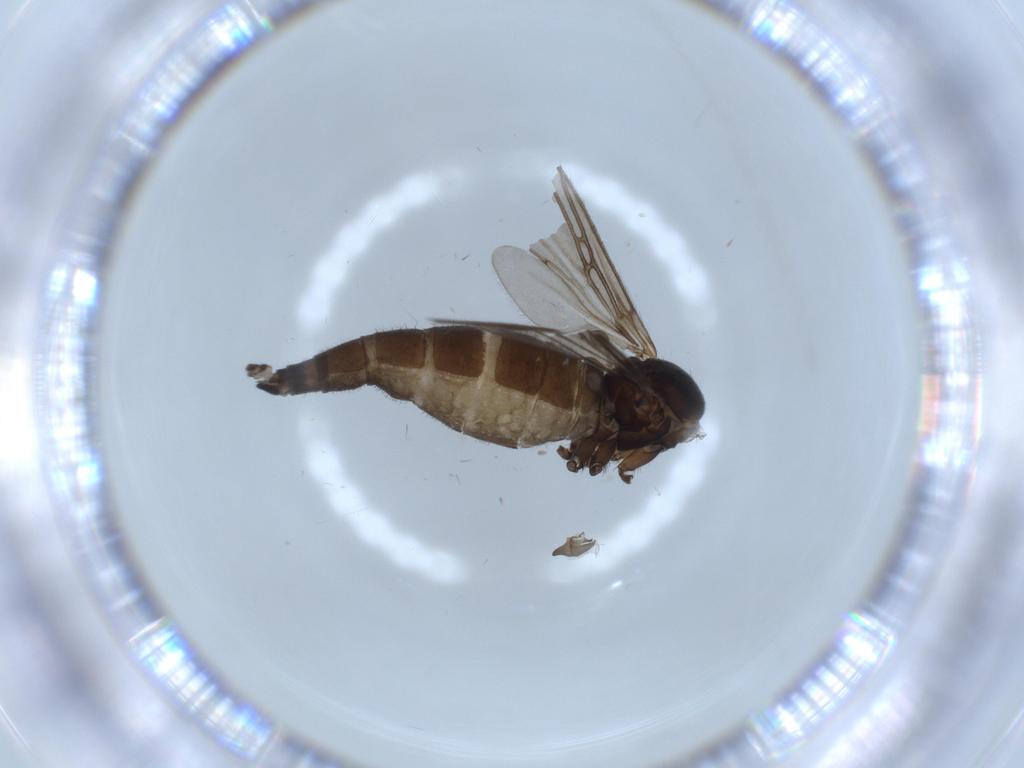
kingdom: Animalia
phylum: Arthropoda
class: Insecta
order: Diptera
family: Sciaridae
